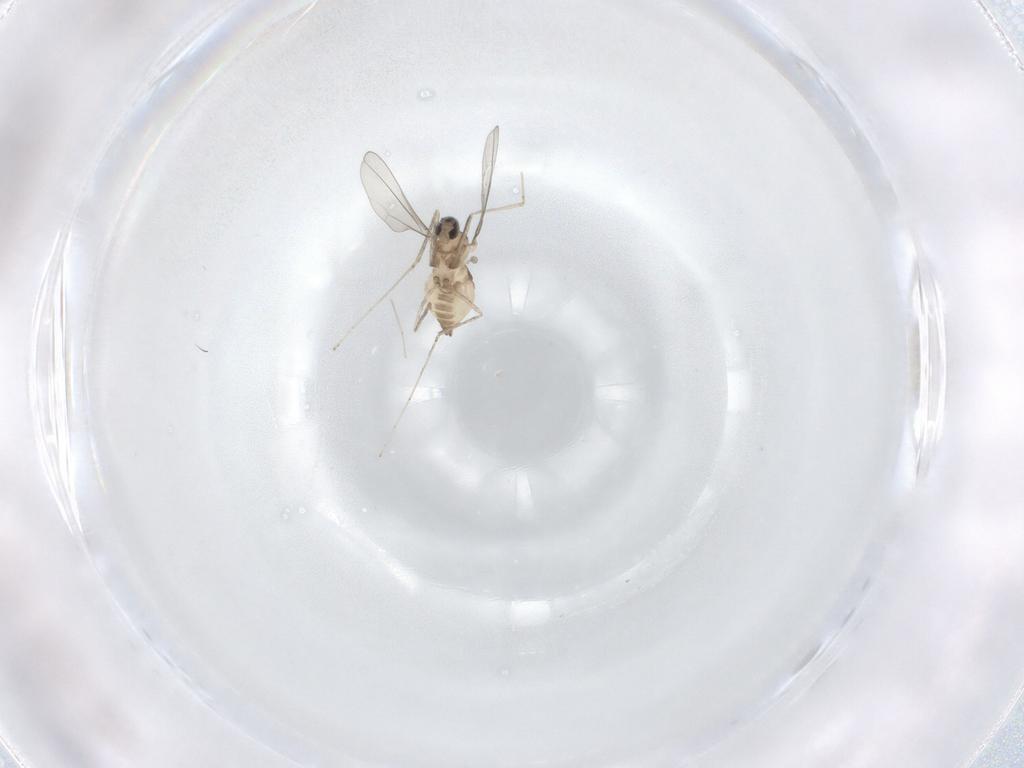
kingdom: Animalia
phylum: Arthropoda
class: Insecta
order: Diptera
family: Cecidomyiidae
